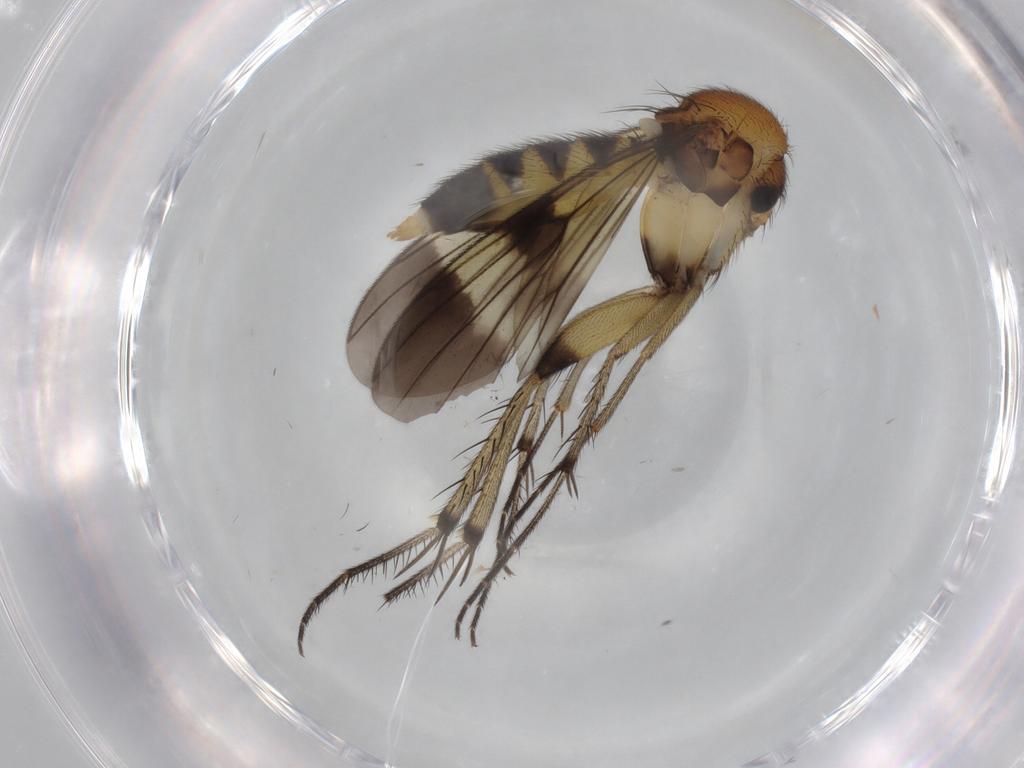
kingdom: Animalia
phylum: Arthropoda
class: Insecta
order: Diptera
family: Mycetophilidae
